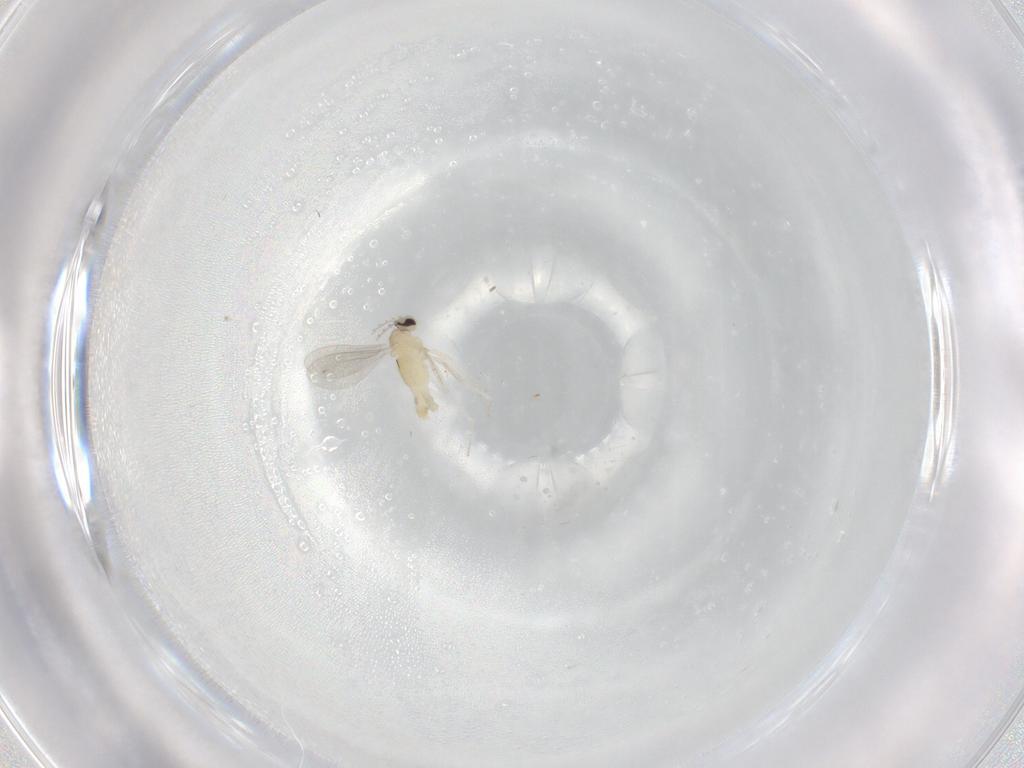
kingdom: Animalia
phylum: Arthropoda
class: Insecta
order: Diptera
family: Cecidomyiidae
